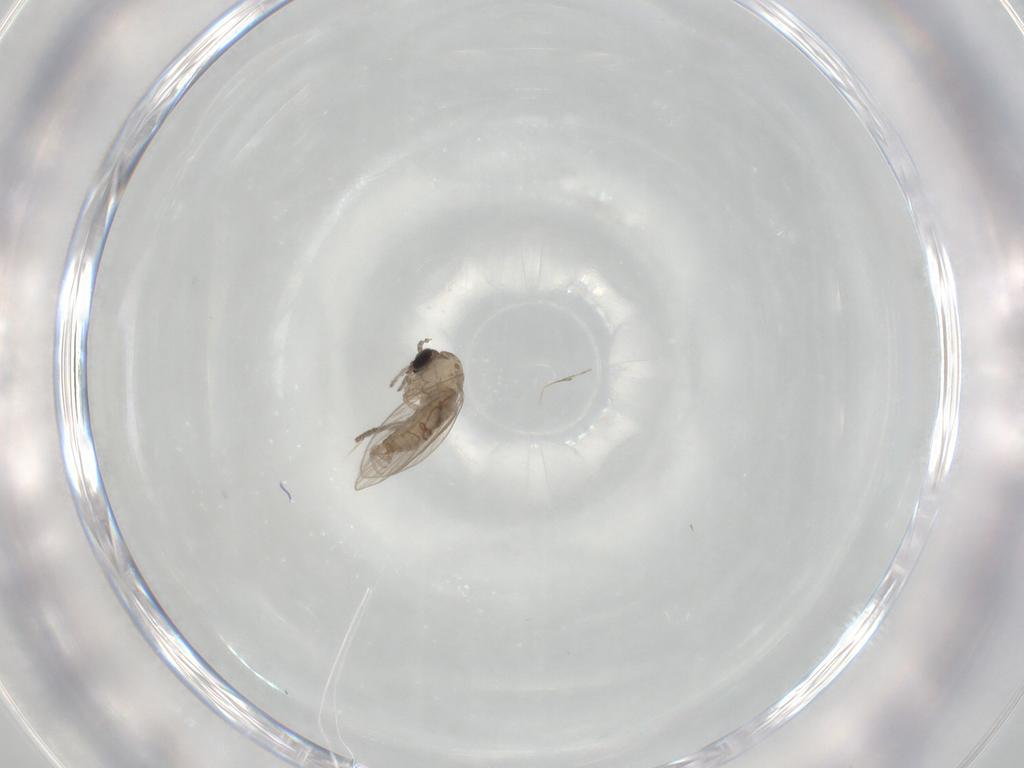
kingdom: Animalia
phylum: Arthropoda
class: Insecta
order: Diptera
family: Psychodidae
